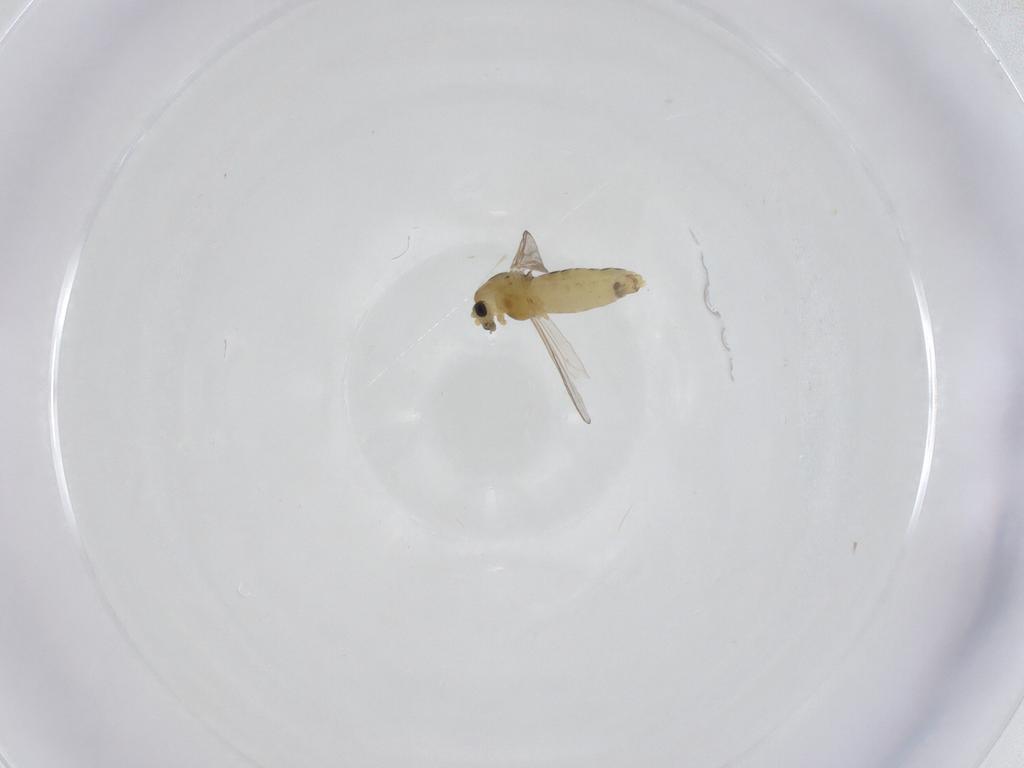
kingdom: Animalia
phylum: Arthropoda
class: Insecta
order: Diptera
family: Chironomidae
